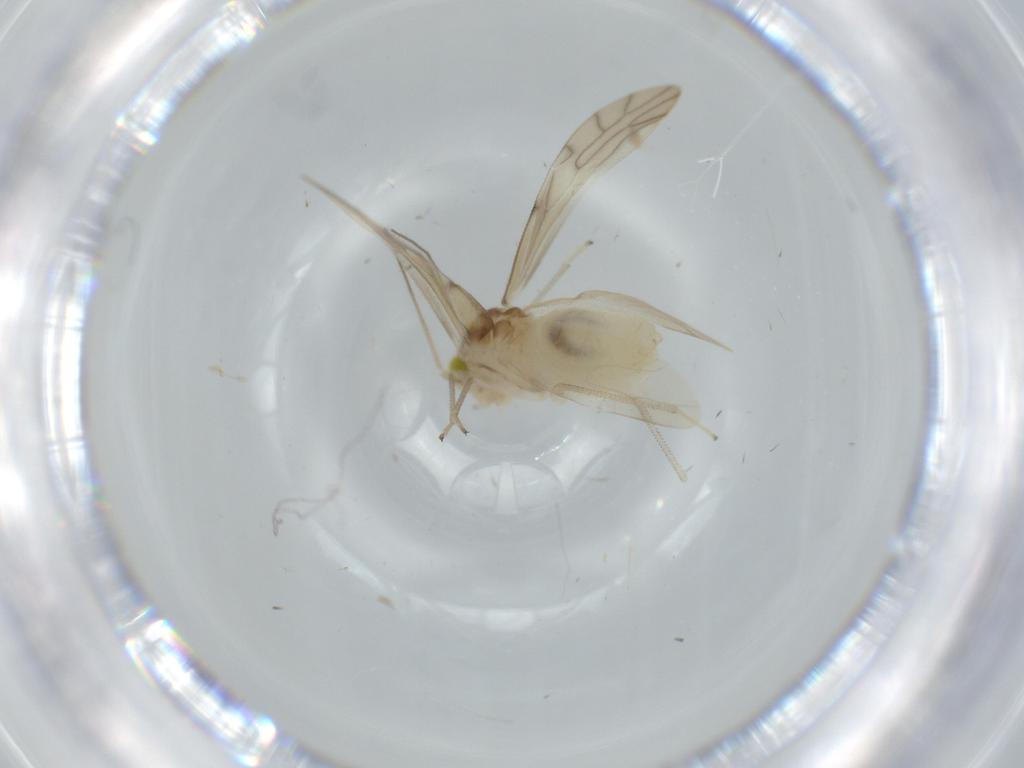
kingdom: Animalia
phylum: Arthropoda
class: Insecta
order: Psocodea
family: Caeciliusidae
